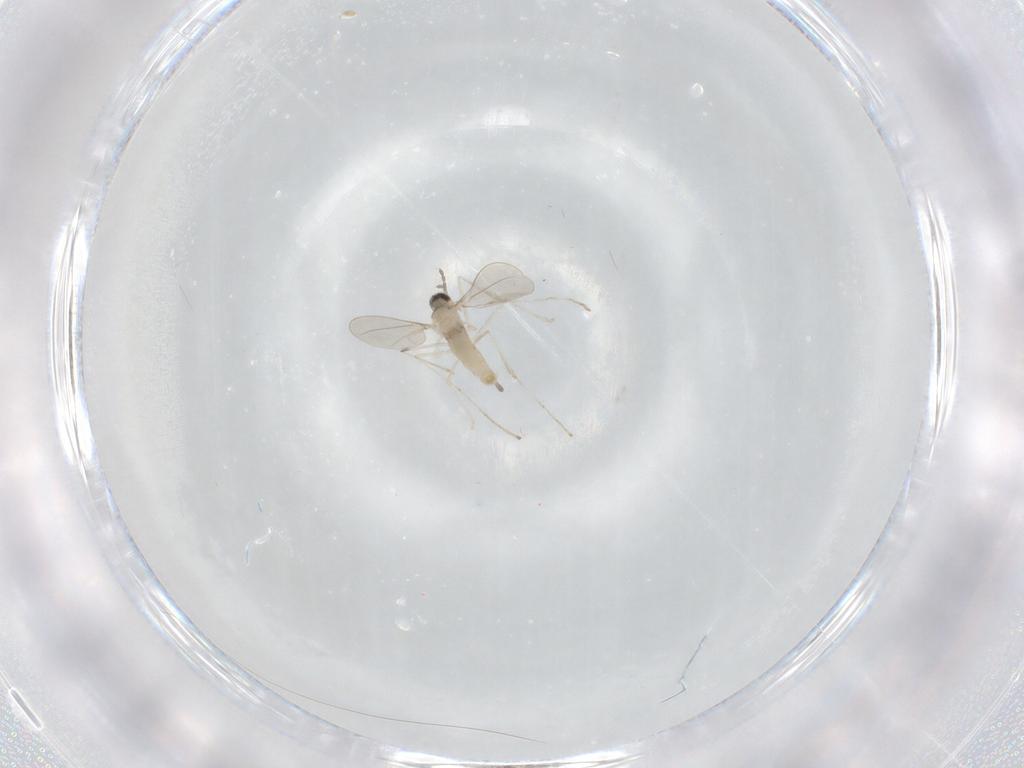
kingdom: Animalia
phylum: Arthropoda
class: Insecta
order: Diptera
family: Cecidomyiidae
